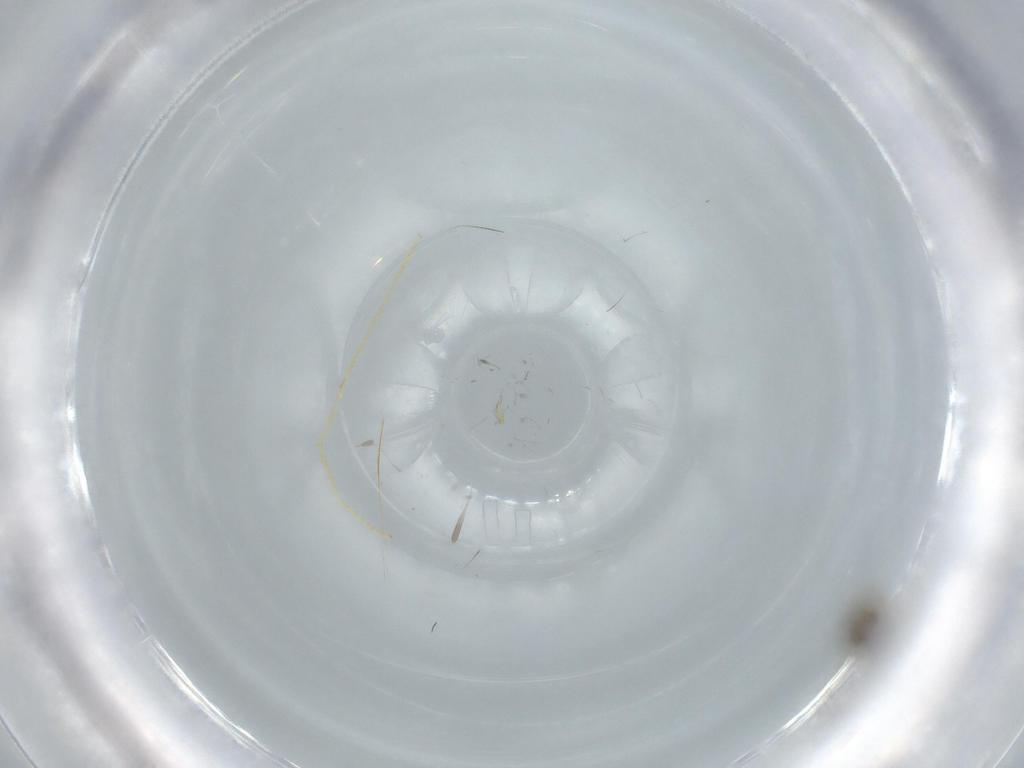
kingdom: Animalia
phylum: Arthropoda
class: Insecta
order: Diptera
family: Chironomidae
